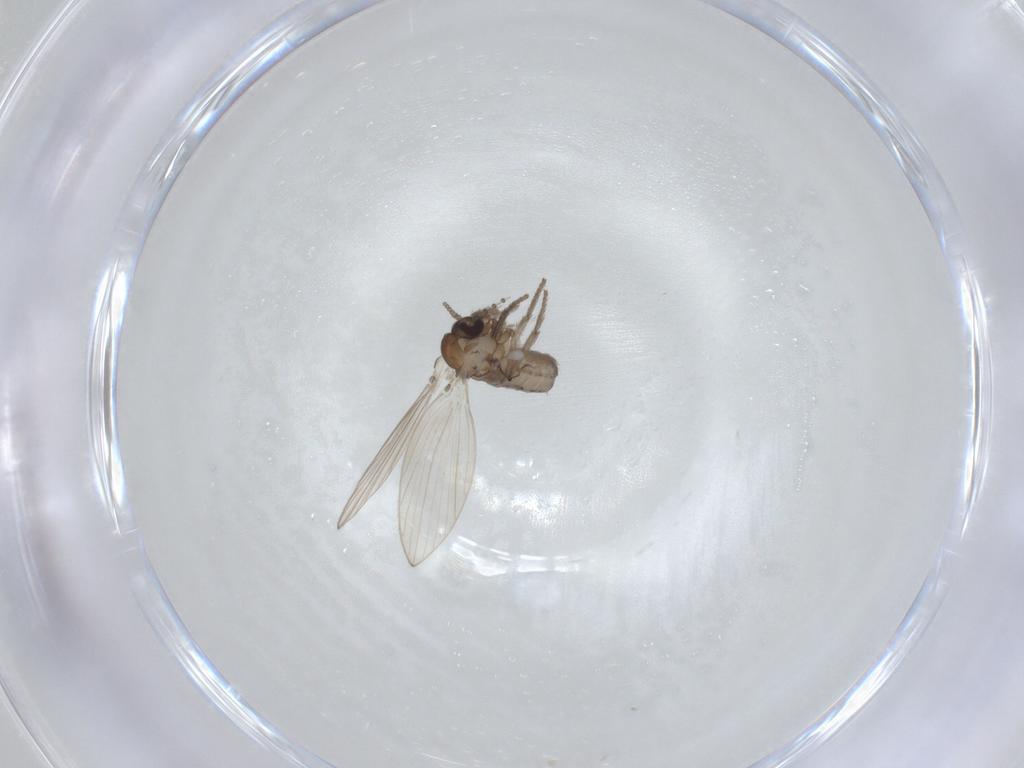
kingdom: Animalia
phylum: Arthropoda
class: Insecta
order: Diptera
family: Psychodidae
